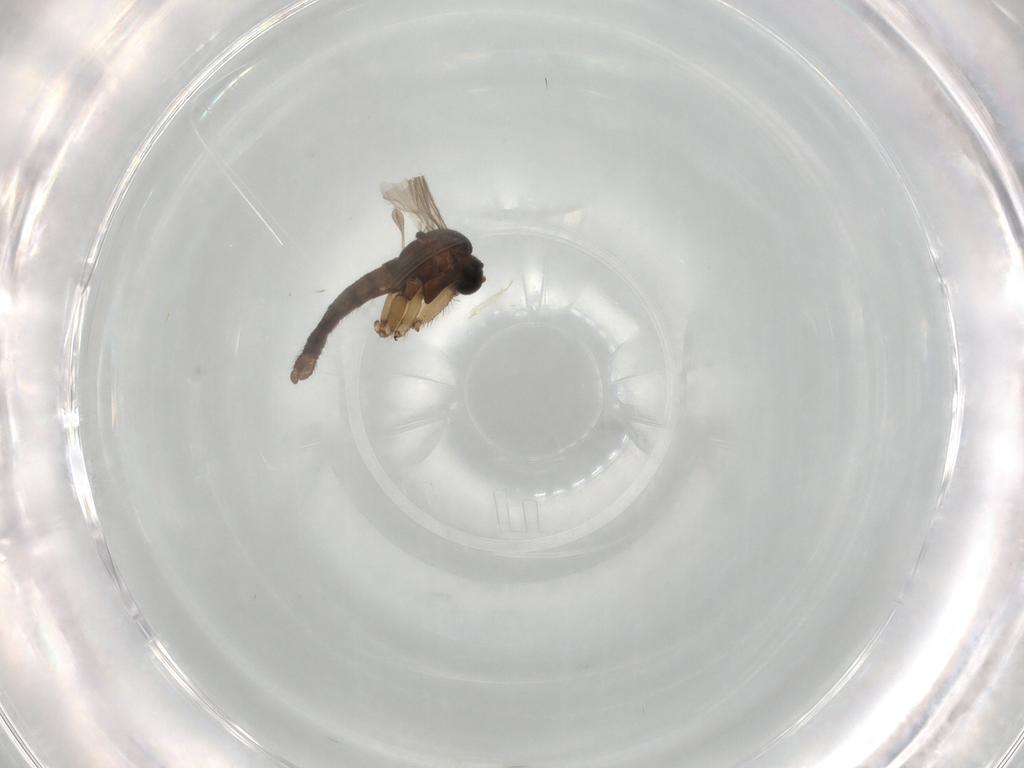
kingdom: Animalia
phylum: Arthropoda
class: Insecta
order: Diptera
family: Sciaridae
